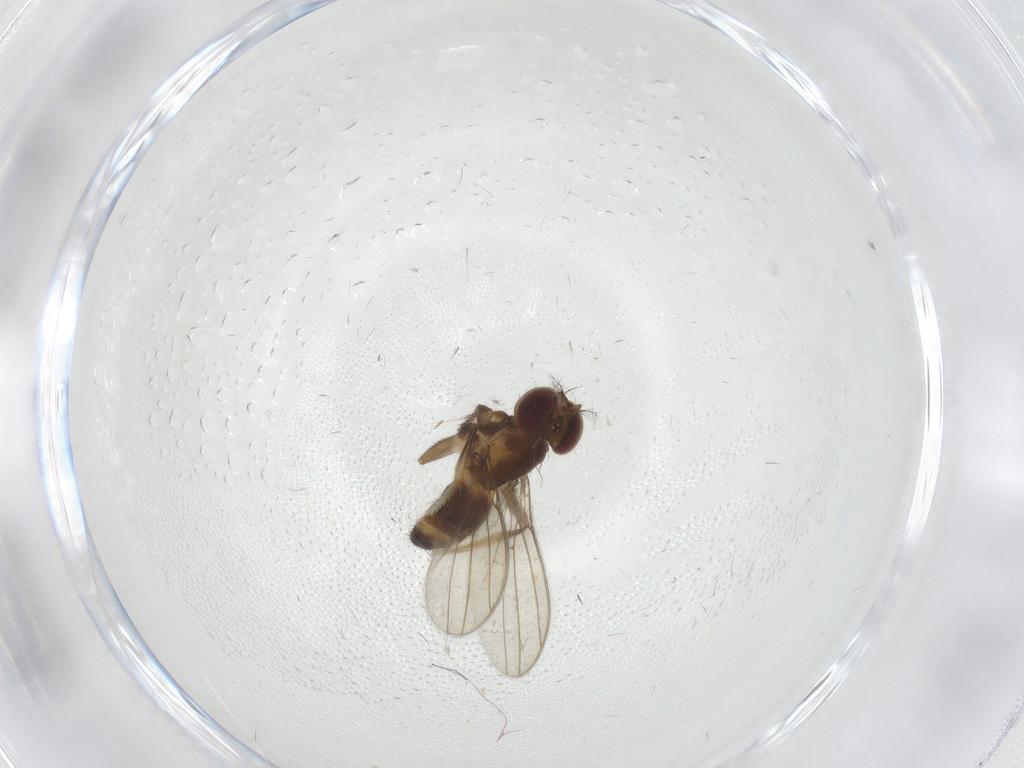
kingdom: Animalia
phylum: Arthropoda
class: Insecta
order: Diptera
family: Periscelididae
